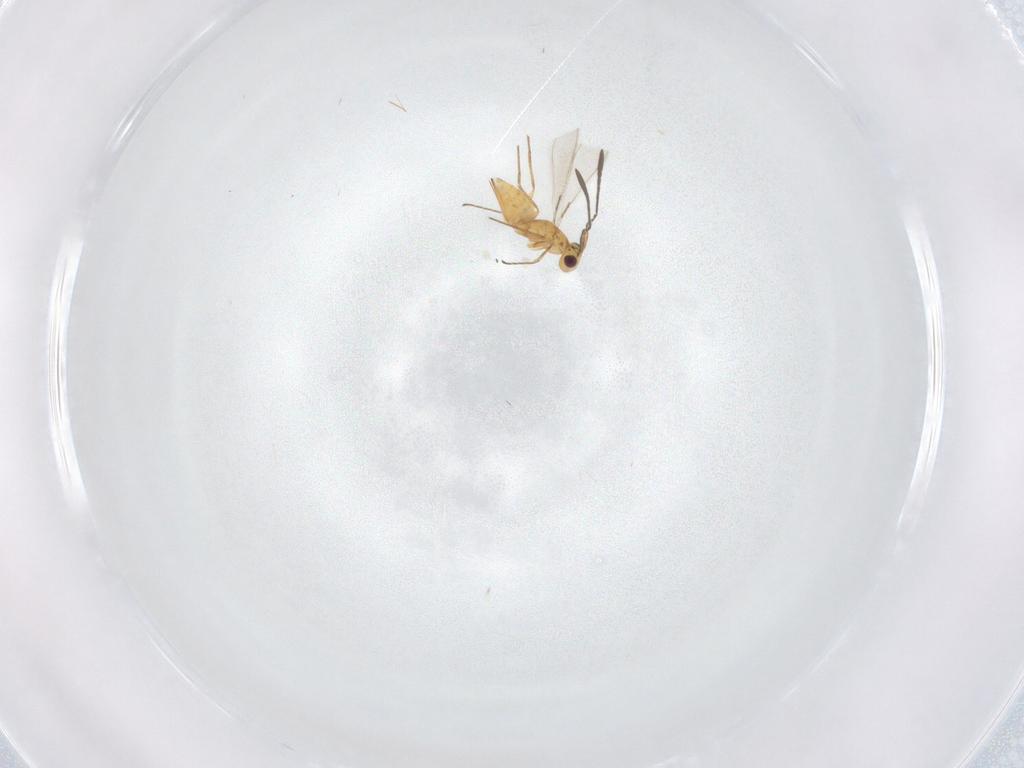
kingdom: Animalia
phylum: Arthropoda
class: Insecta
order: Hymenoptera
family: Mymaridae
